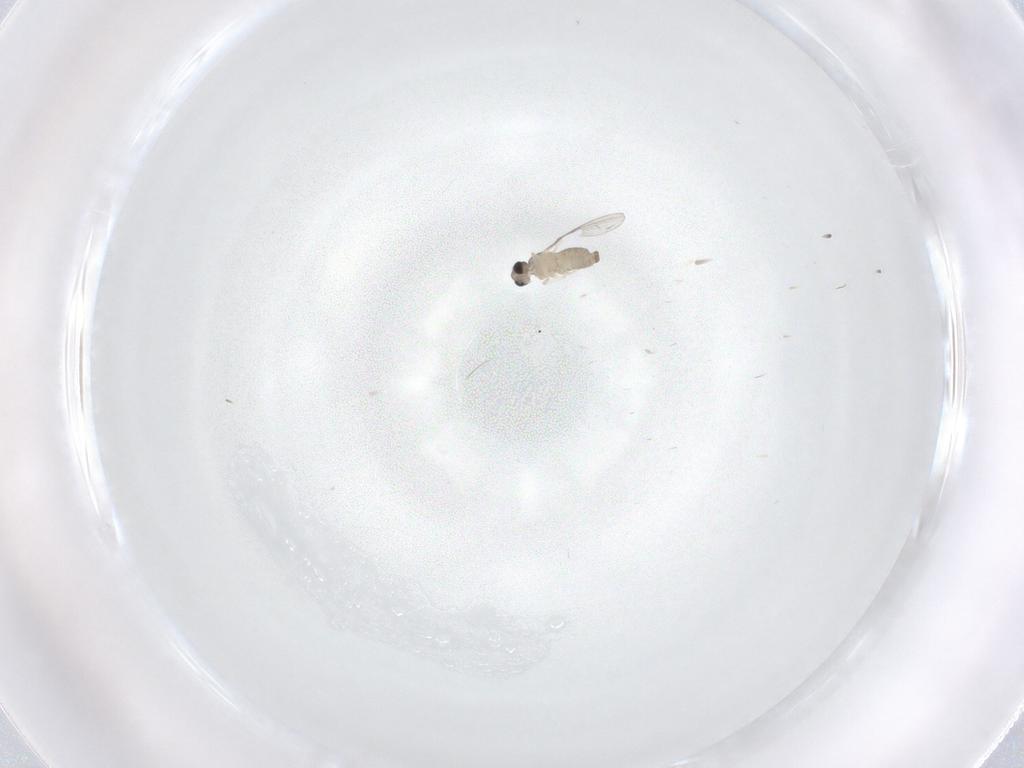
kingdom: Animalia
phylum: Arthropoda
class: Insecta
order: Diptera
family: Cecidomyiidae
